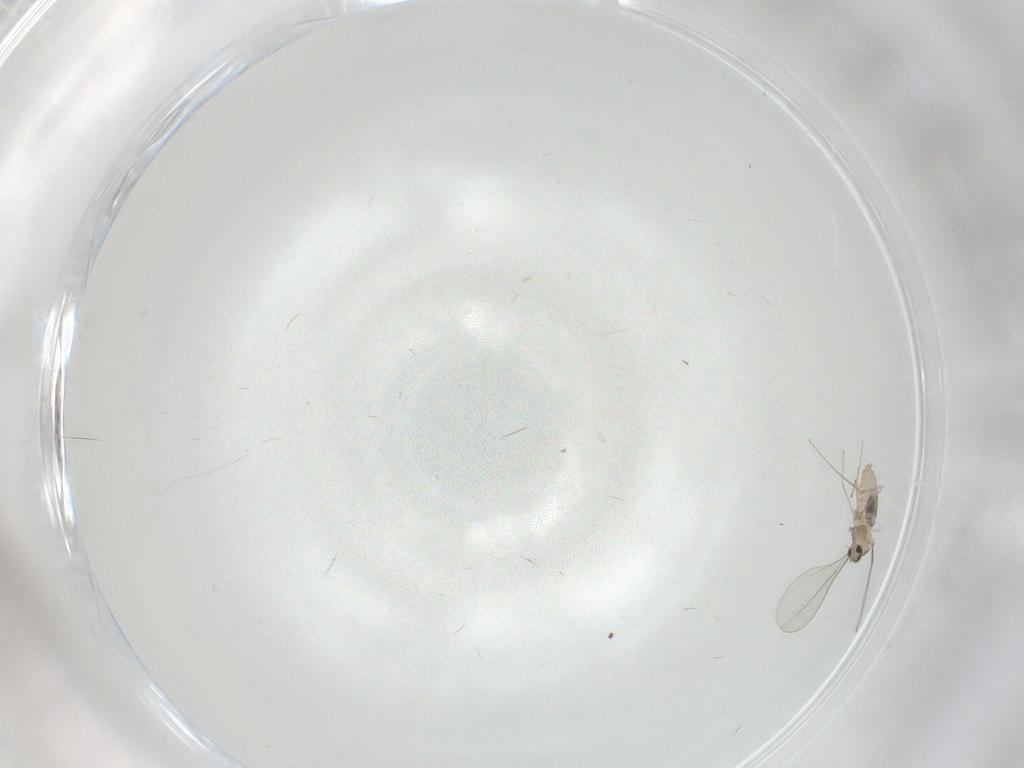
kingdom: Animalia
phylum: Arthropoda
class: Insecta
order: Diptera
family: Cecidomyiidae
